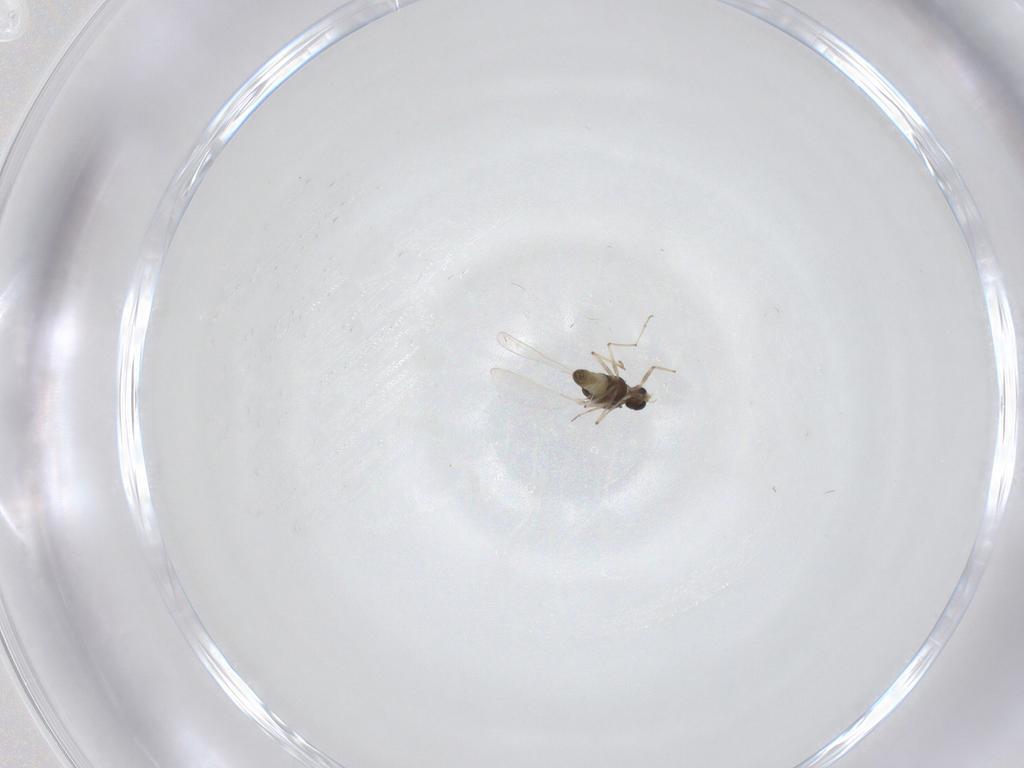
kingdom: Animalia
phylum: Arthropoda
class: Insecta
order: Diptera
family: Chironomidae
